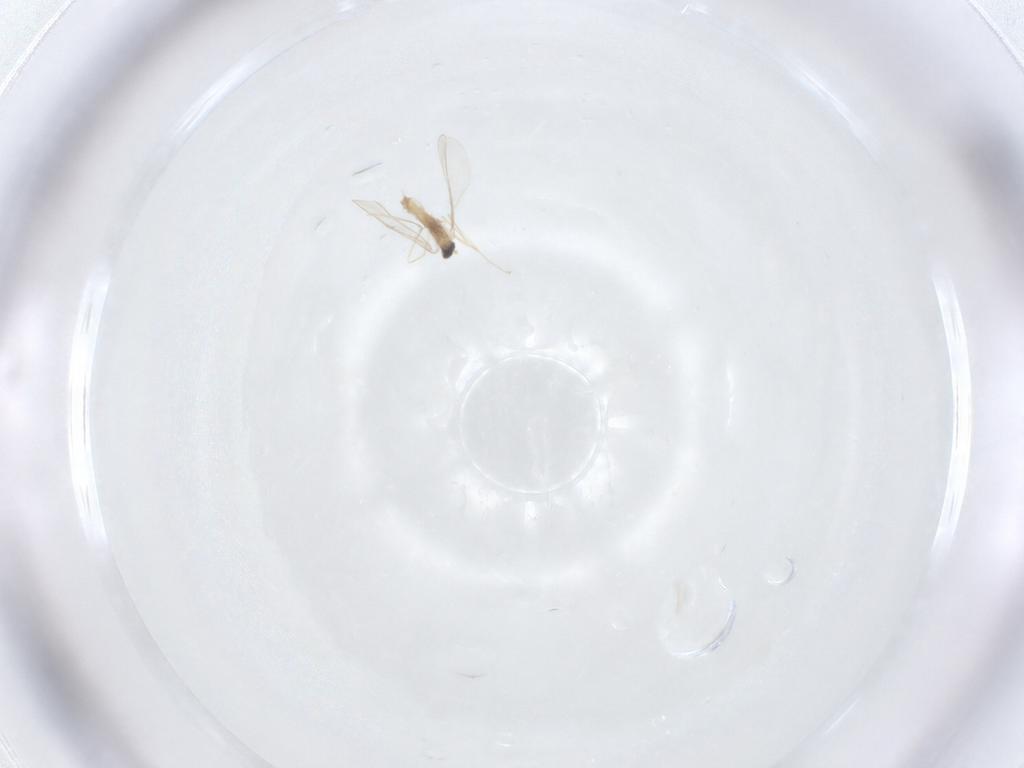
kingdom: Animalia
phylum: Arthropoda
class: Insecta
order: Diptera
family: Cecidomyiidae
